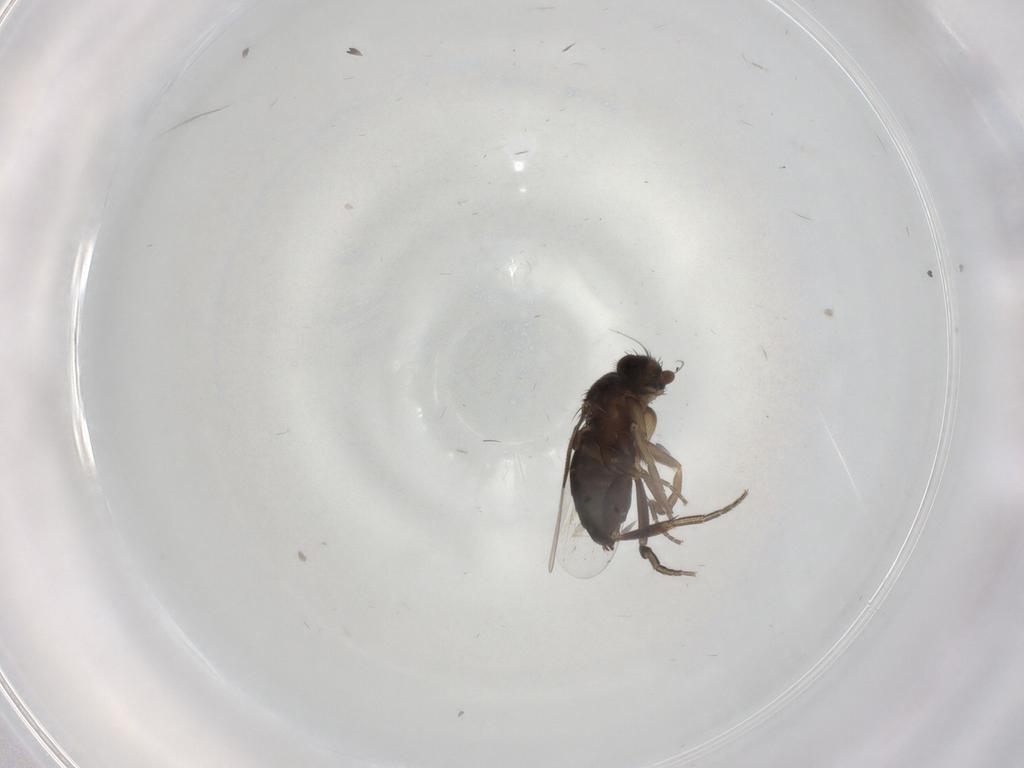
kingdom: Animalia
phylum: Arthropoda
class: Insecta
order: Diptera
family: Phoridae
